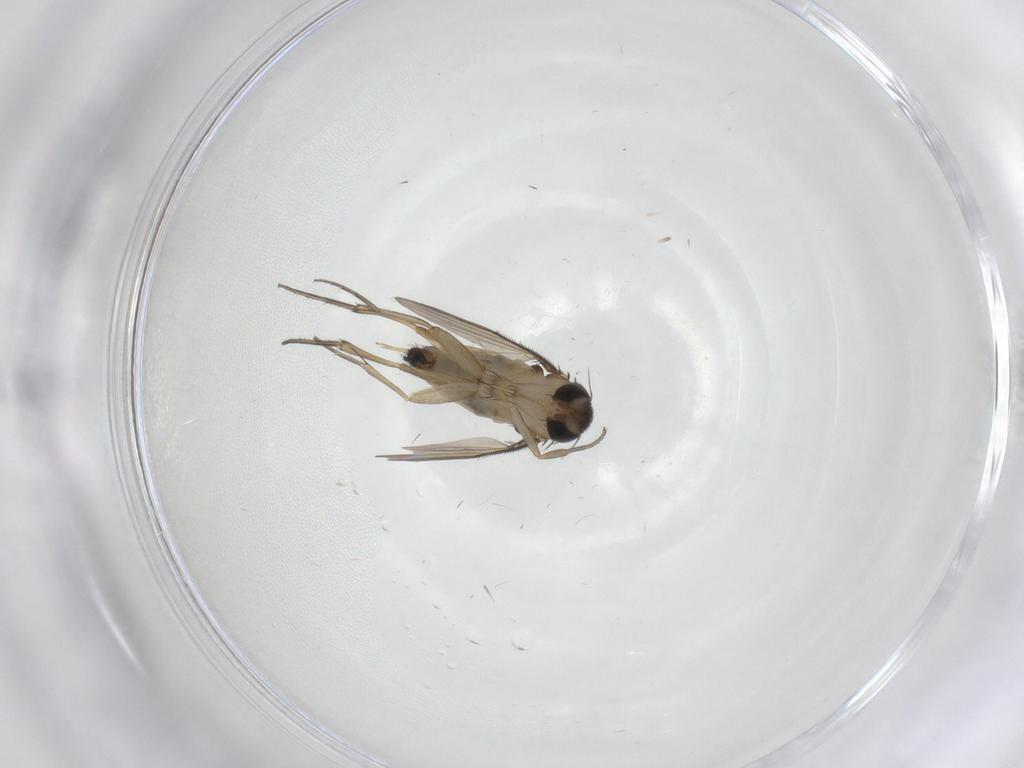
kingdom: Animalia
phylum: Arthropoda
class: Insecta
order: Diptera
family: Phoridae
